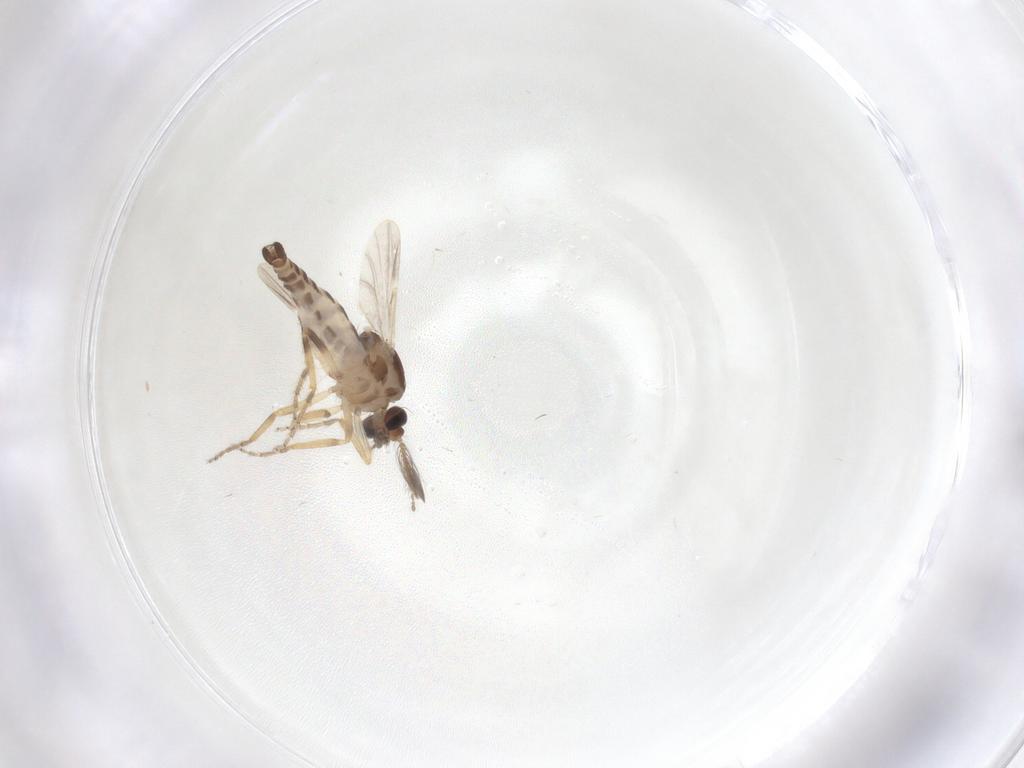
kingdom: Animalia
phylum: Arthropoda
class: Insecta
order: Diptera
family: Ceratopogonidae
